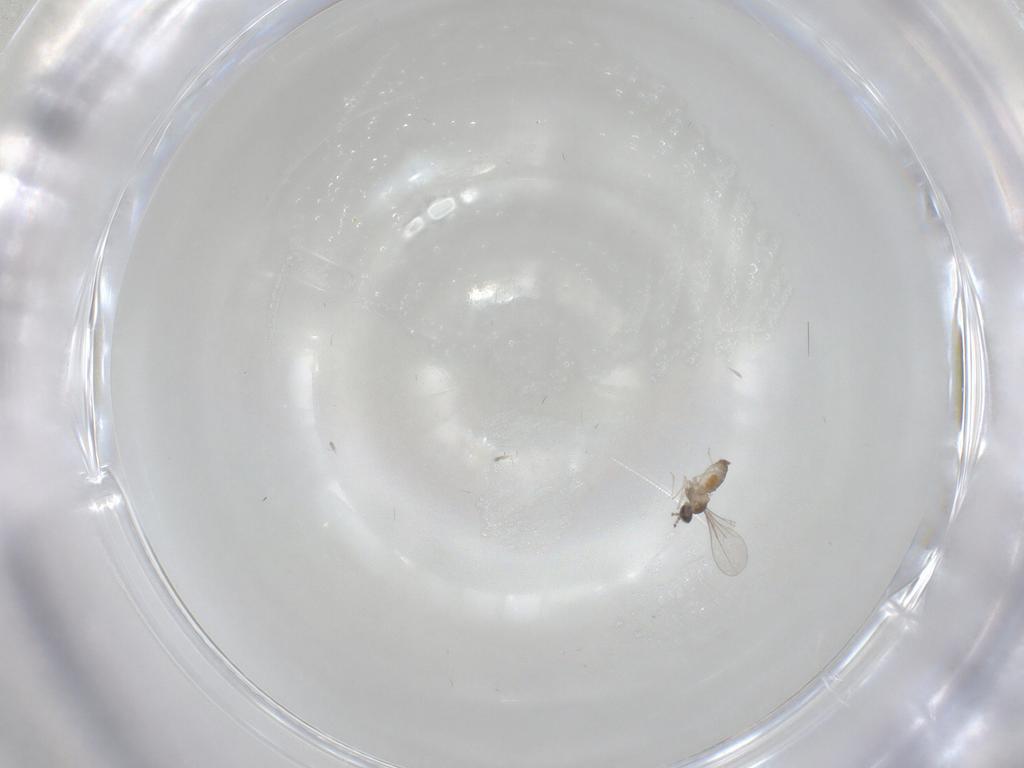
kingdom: Animalia
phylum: Arthropoda
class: Insecta
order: Diptera
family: Cecidomyiidae
